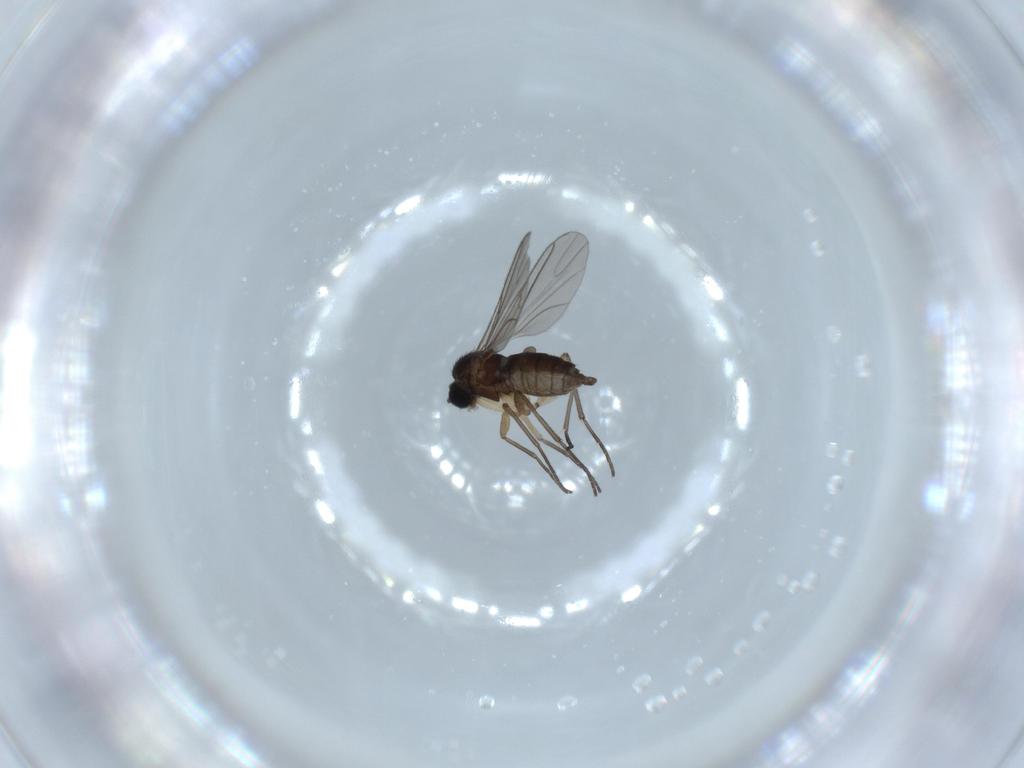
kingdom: Animalia
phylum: Arthropoda
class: Insecta
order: Diptera
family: Sciaridae
